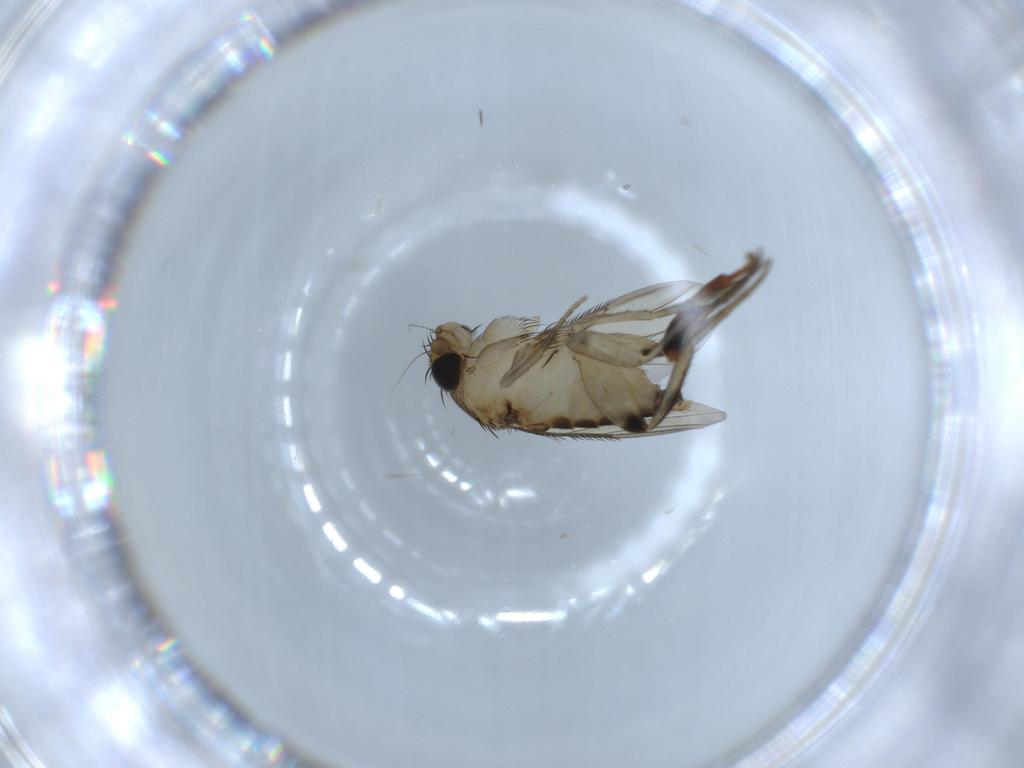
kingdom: Animalia
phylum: Arthropoda
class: Insecta
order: Diptera
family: Phoridae
